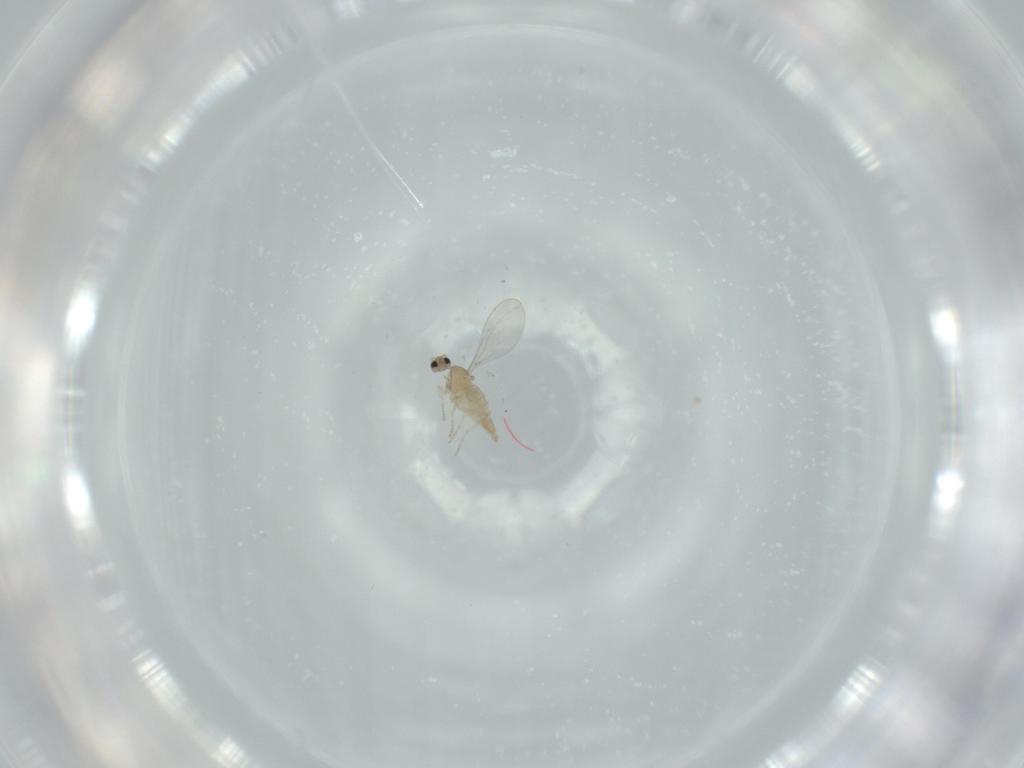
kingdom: Animalia
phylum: Arthropoda
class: Insecta
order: Diptera
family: Cecidomyiidae
